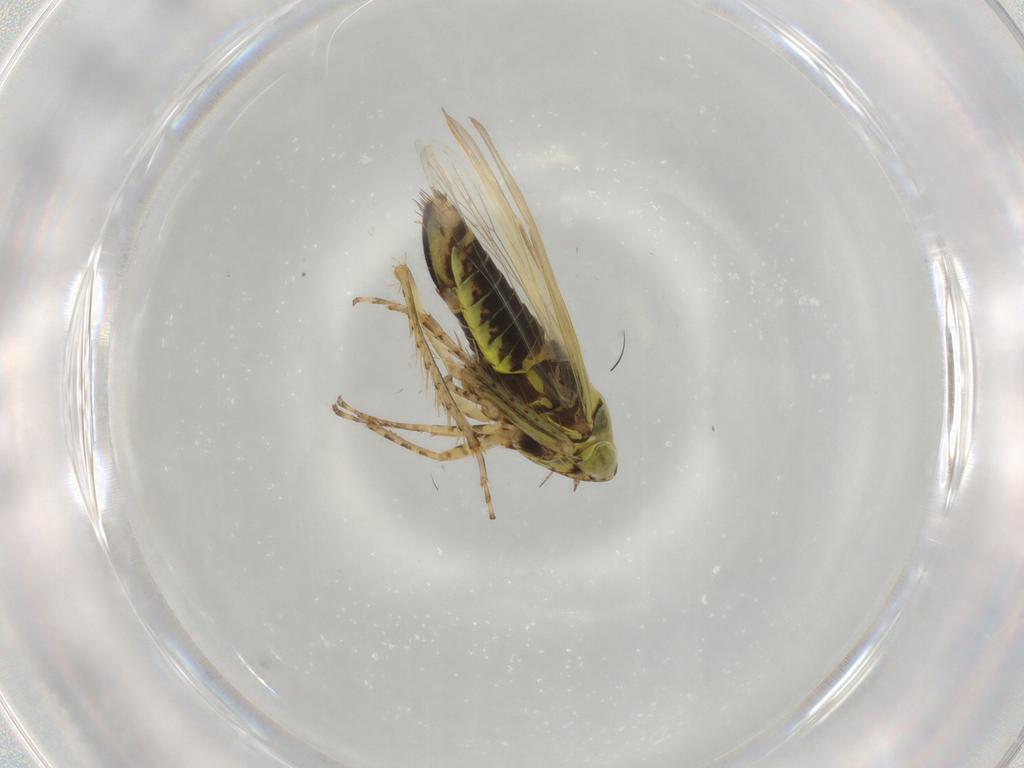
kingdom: Animalia
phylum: Arthropoda
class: Insecta
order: Hemiptera
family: Cicadellidae
